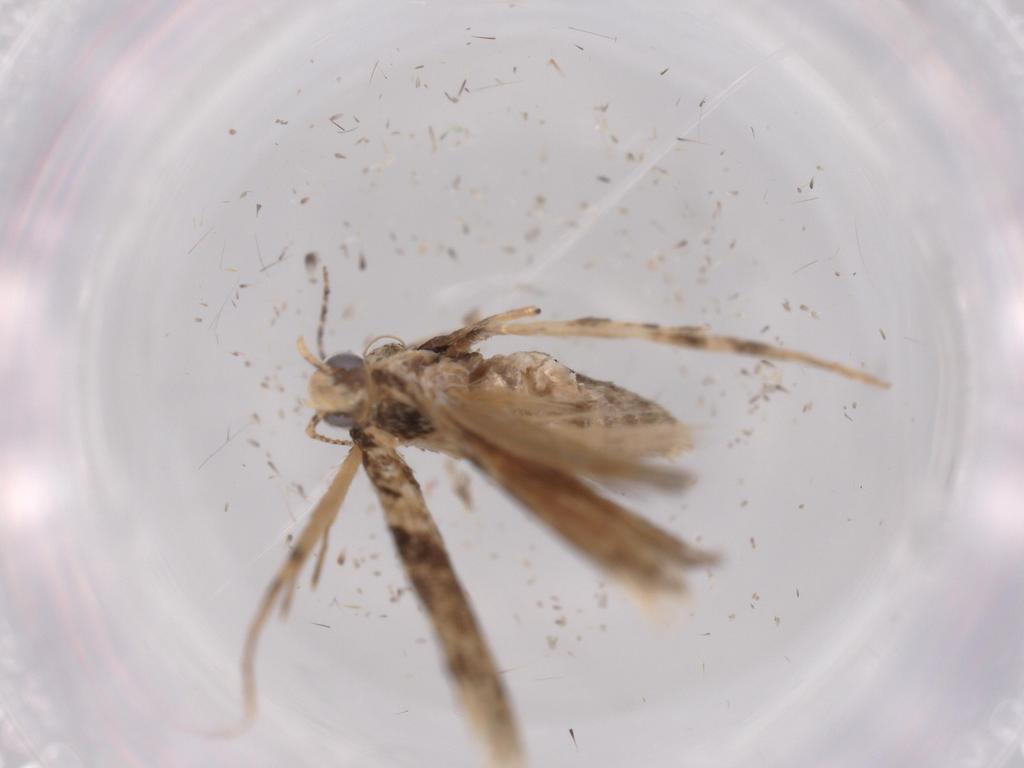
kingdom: Animalia
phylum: Arthropoda
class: Insecta
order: Lepidoptera
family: Gelechiidae
